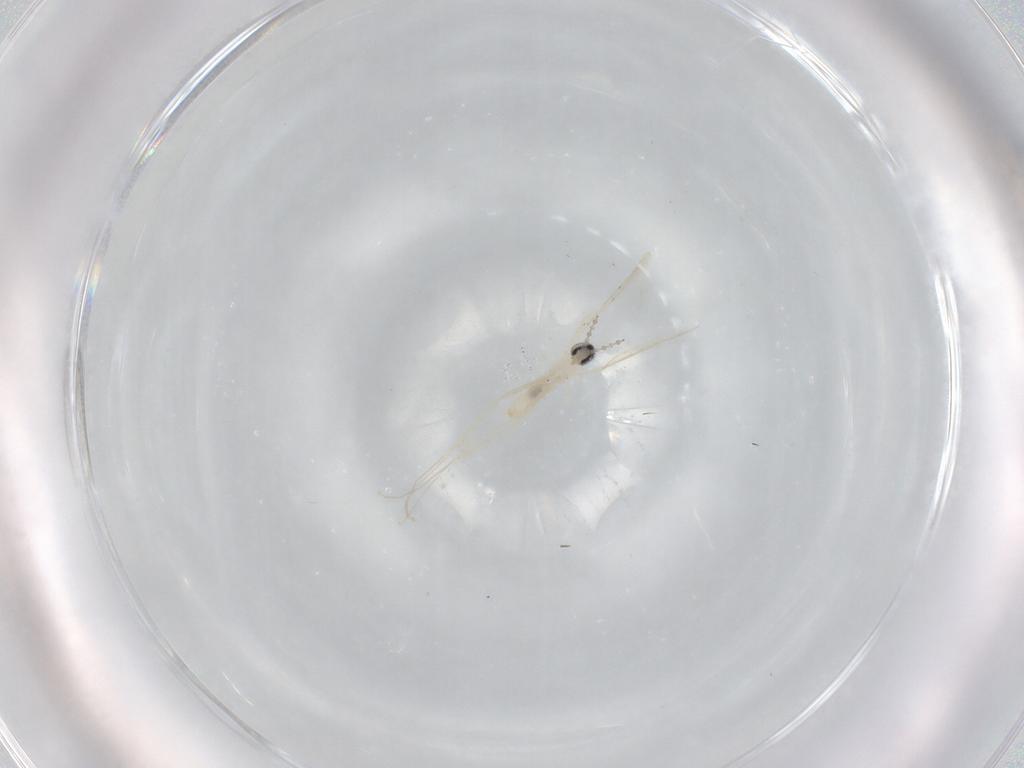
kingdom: Animalia
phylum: Arthropoda
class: Insecta
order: Diptera
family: Cecidomyiidae
